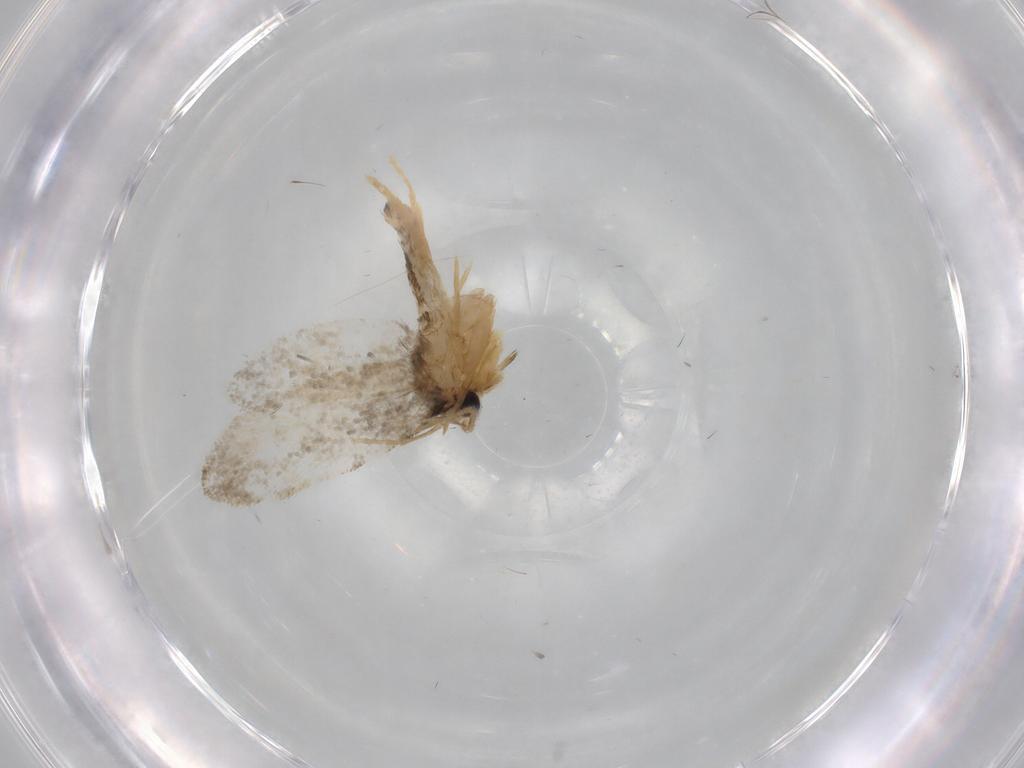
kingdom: Animalia
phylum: Arthropoda
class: Insecta
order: Lepidoptera
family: Psychidae
